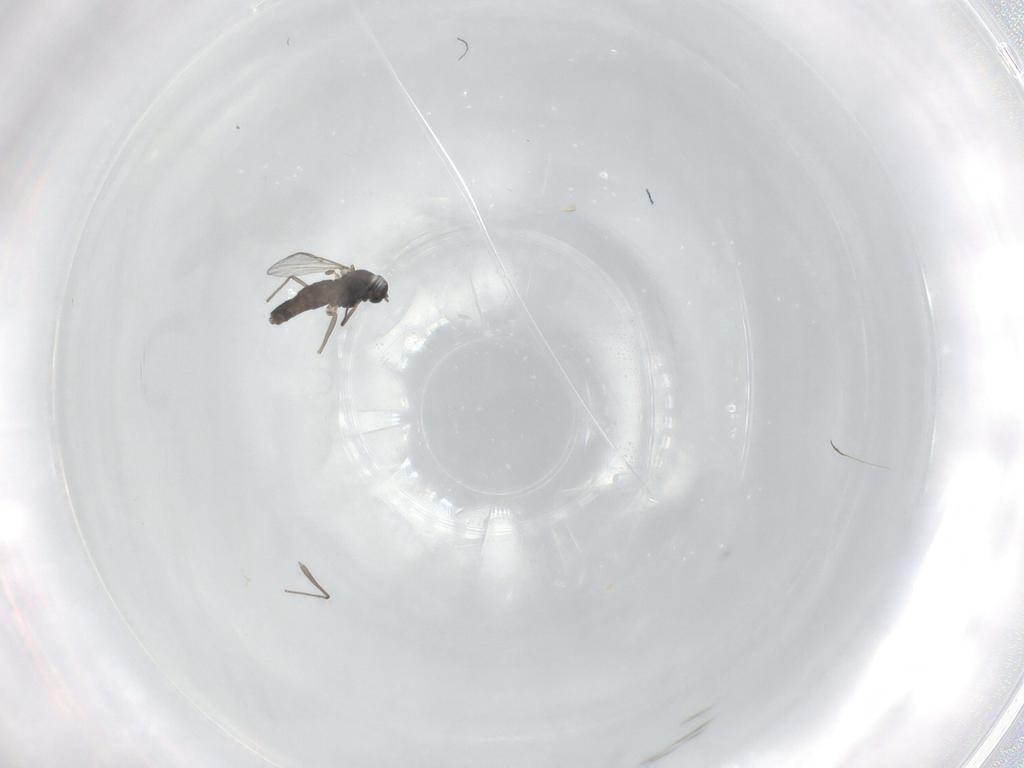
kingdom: Animalia
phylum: Arthropoda
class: Insecta
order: Diptera
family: Chironomidae
